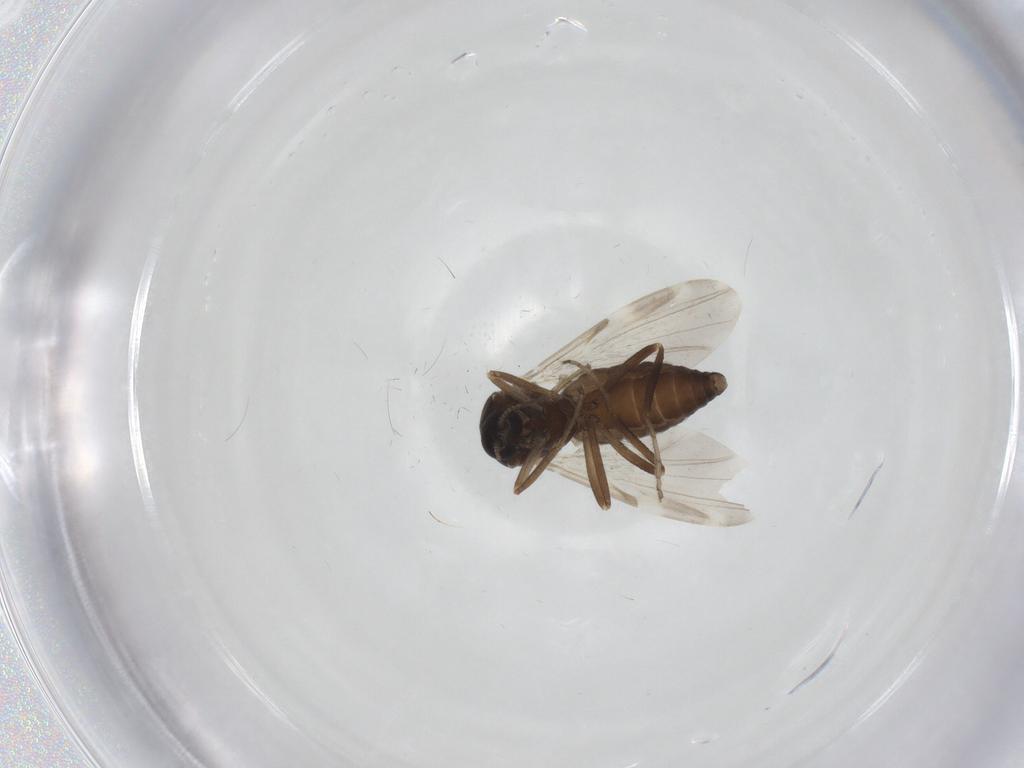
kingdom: Animalia
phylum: Arthropoda
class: Insecta
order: Diptera
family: Ceratopogonidae
